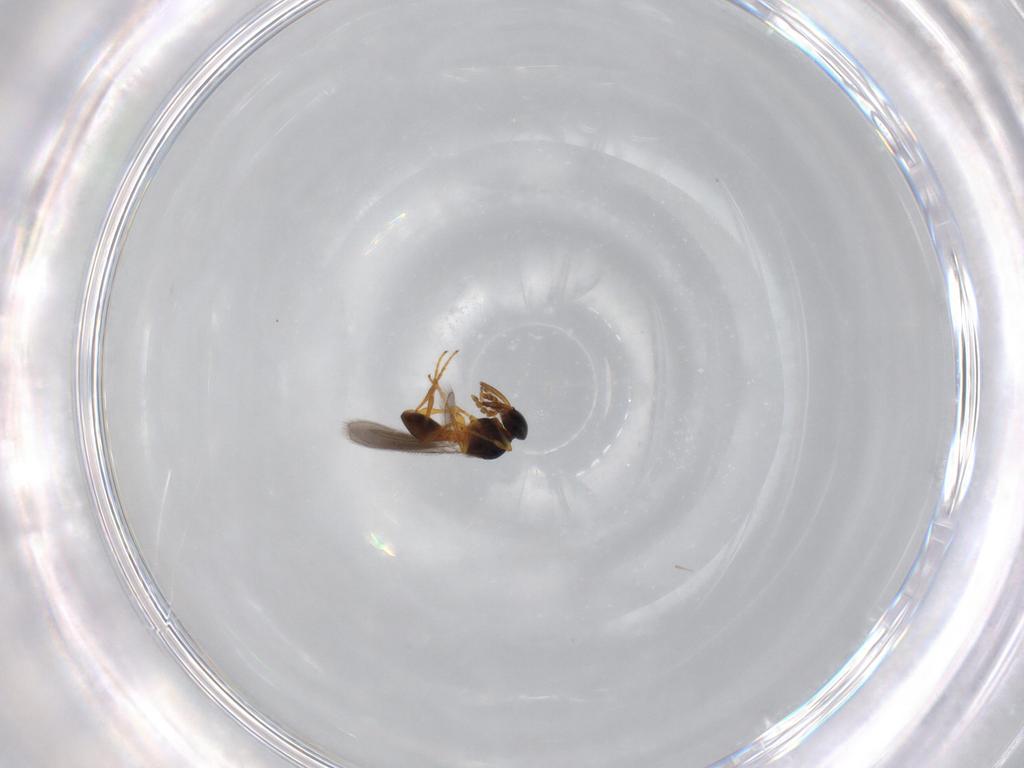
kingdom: Animalia
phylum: Arthropoda
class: Insecta
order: Hymenoptera
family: Platygastridae
